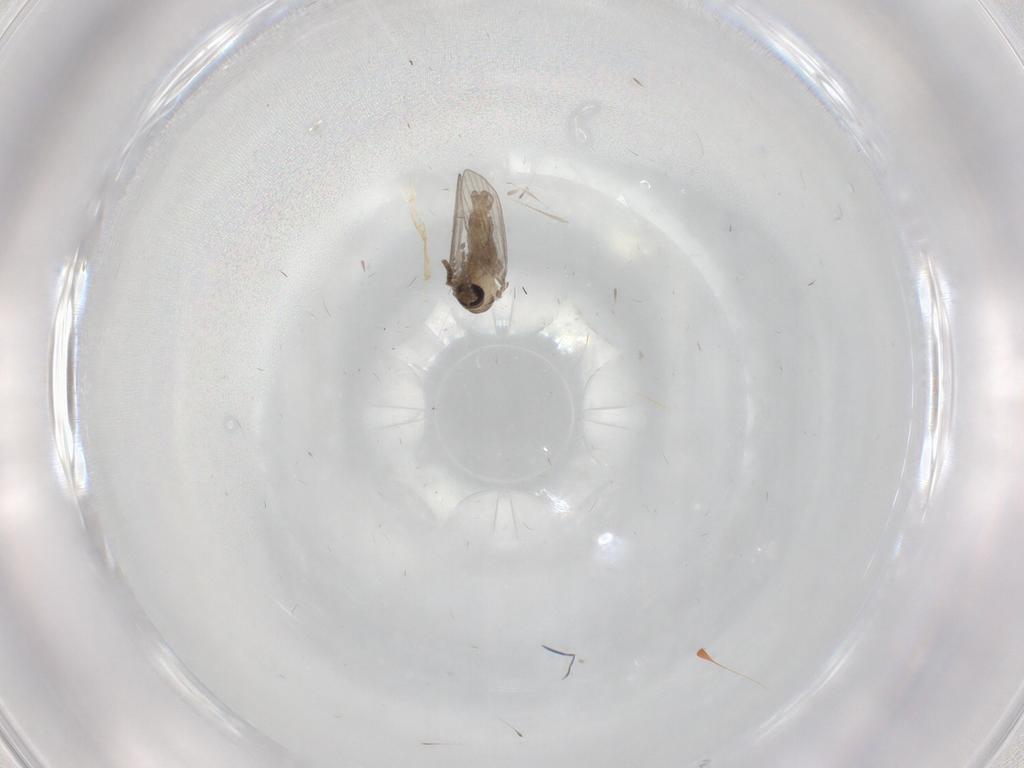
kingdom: Animalia
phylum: Arthropoda
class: Insecta
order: Diptera
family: Psychodidae
